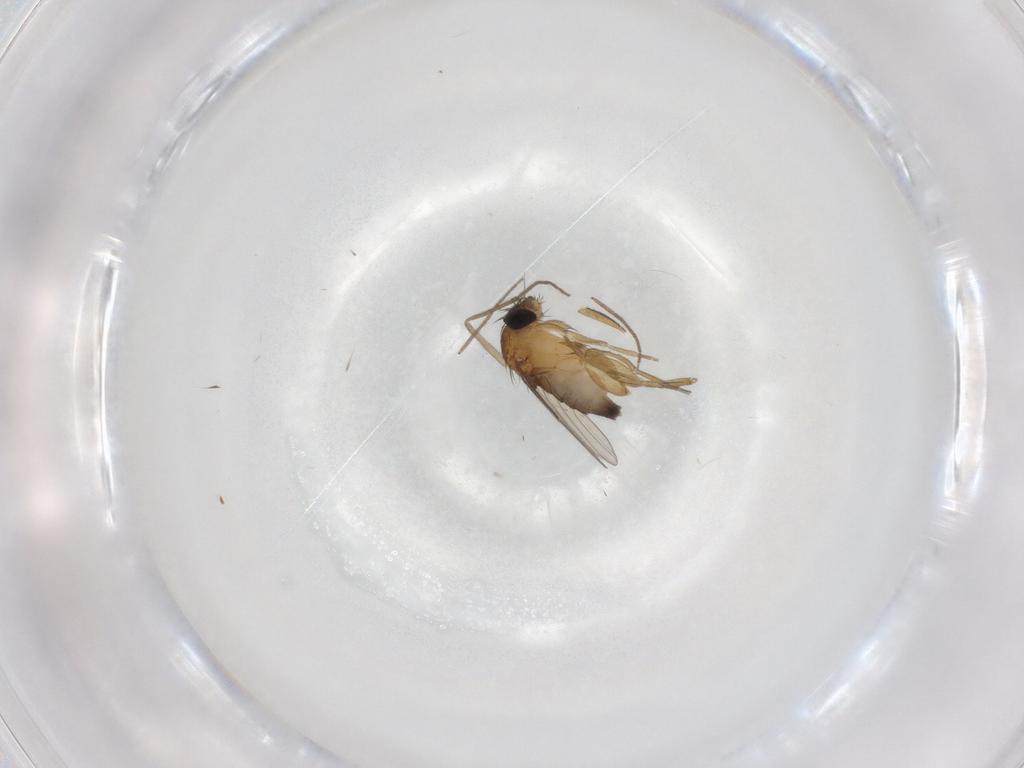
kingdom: Animalia
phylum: Arthropoda
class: Insecta
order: Diptera
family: Phoridae
